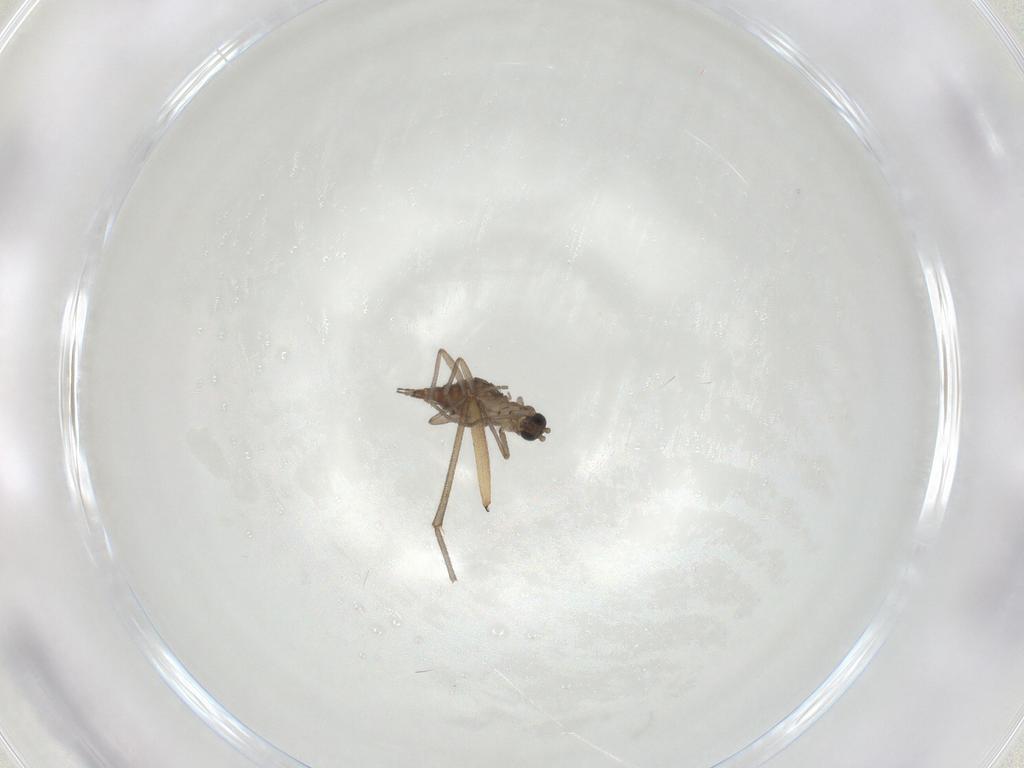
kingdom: Animalia
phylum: Arthropoda
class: Insecta
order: Diptera
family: Sciaridae
